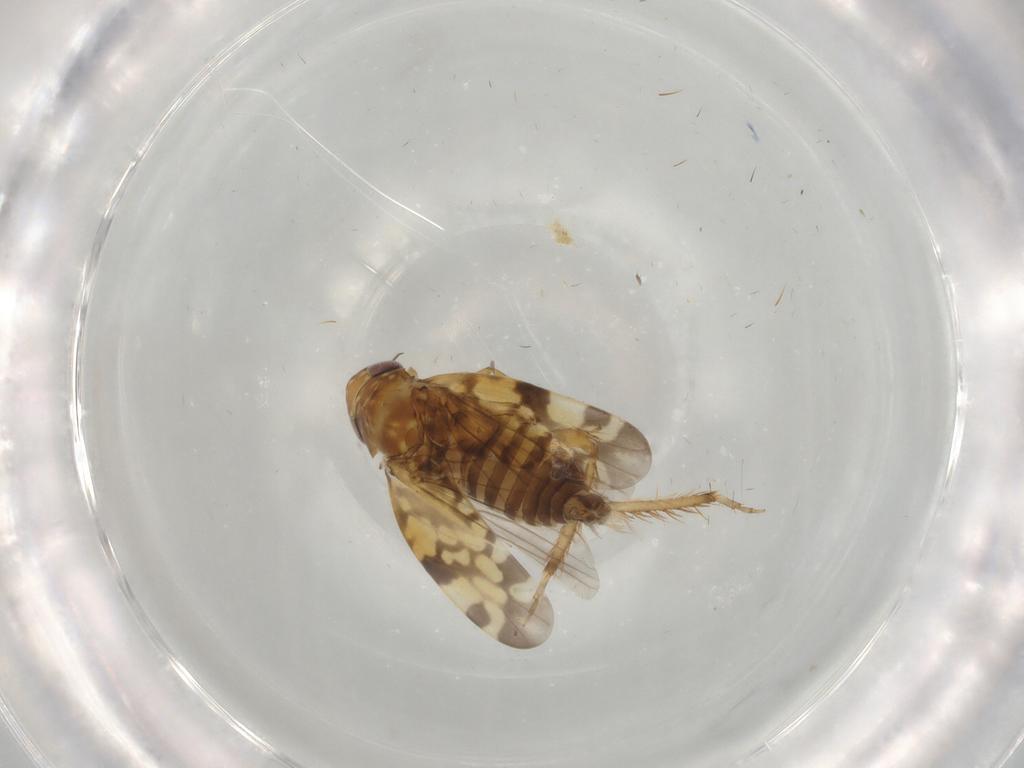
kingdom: Animalia
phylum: Arthropoda
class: Insecta
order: Hemiptera
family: Cicadellidae
